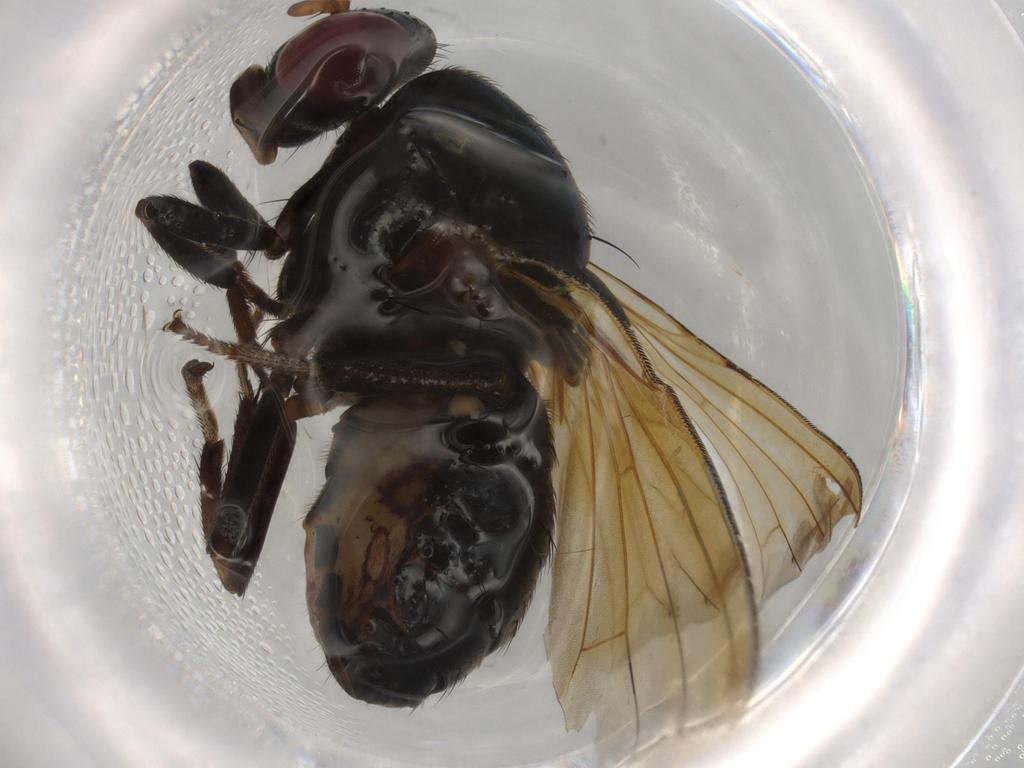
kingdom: Animalia
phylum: Arthropoda
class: Insecta
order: Diptera
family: Lauxaniidae
